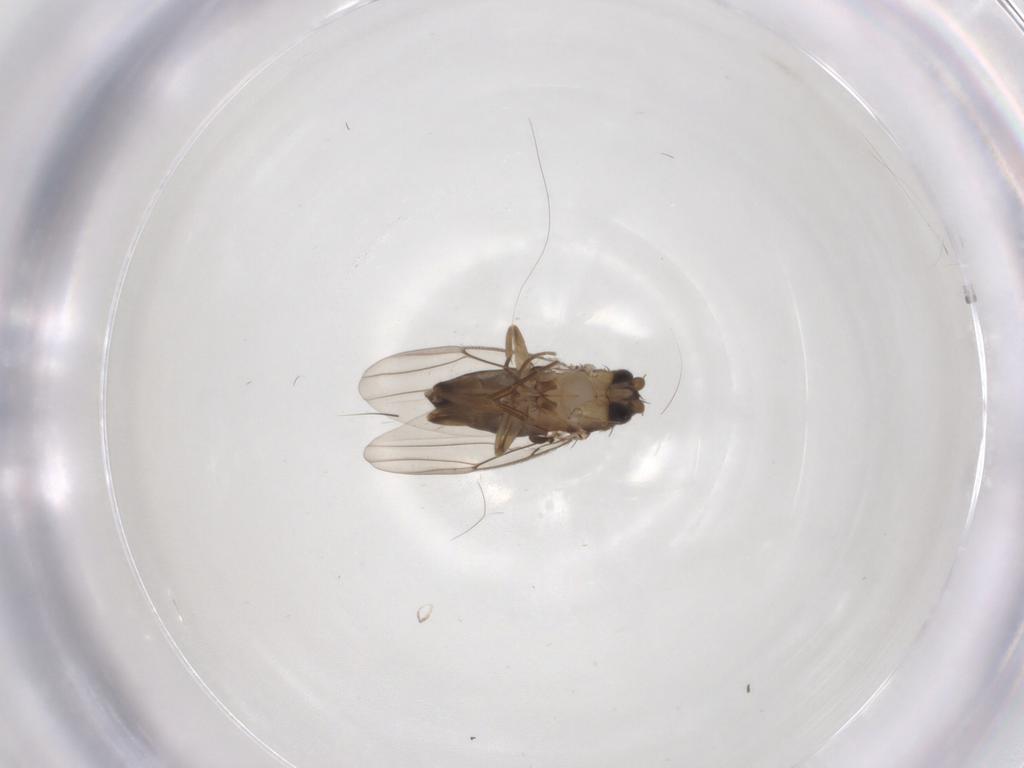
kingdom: Animalia
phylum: Arthropoda
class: Insecta
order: Diptera
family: Phoridae
